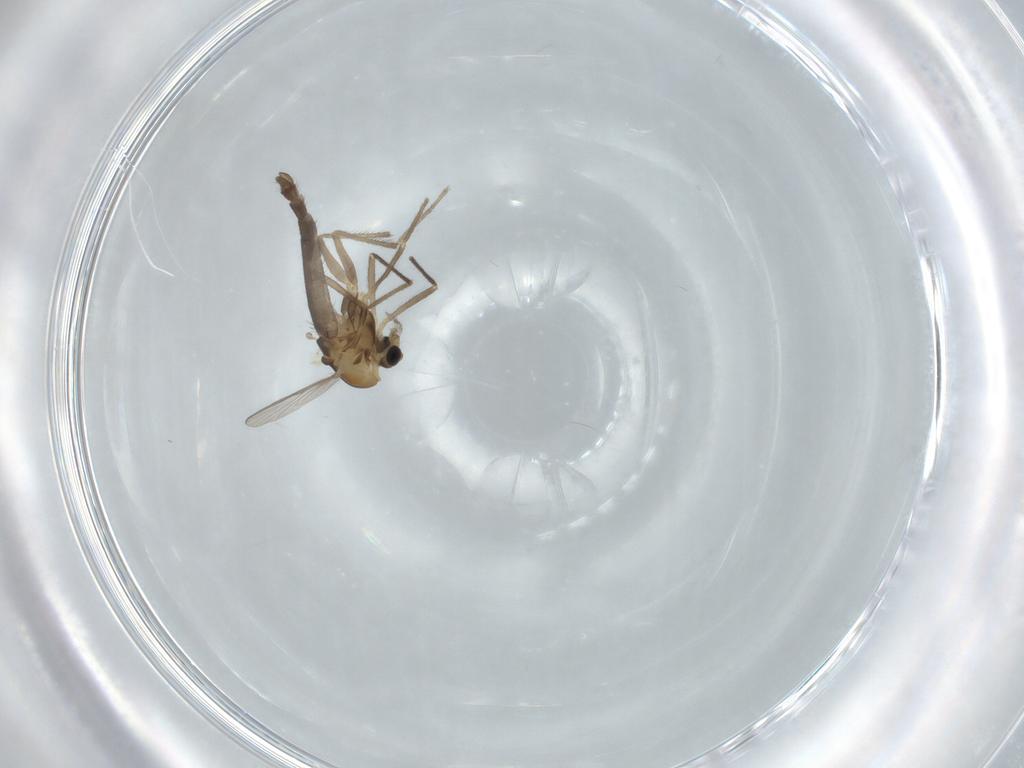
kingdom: Animalia
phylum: Arthropoda
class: Insecta
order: Diptera
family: Chironomidae
